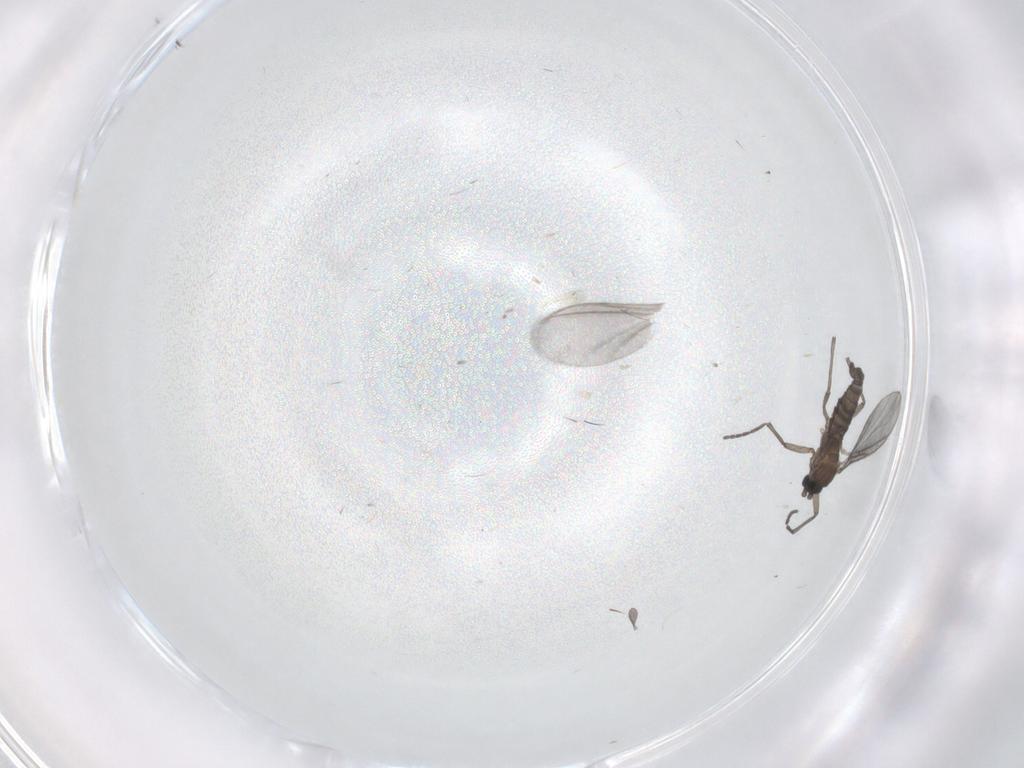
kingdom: Animalia
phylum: Arthropoda
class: Insecta
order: Diptera
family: Sciaridae
